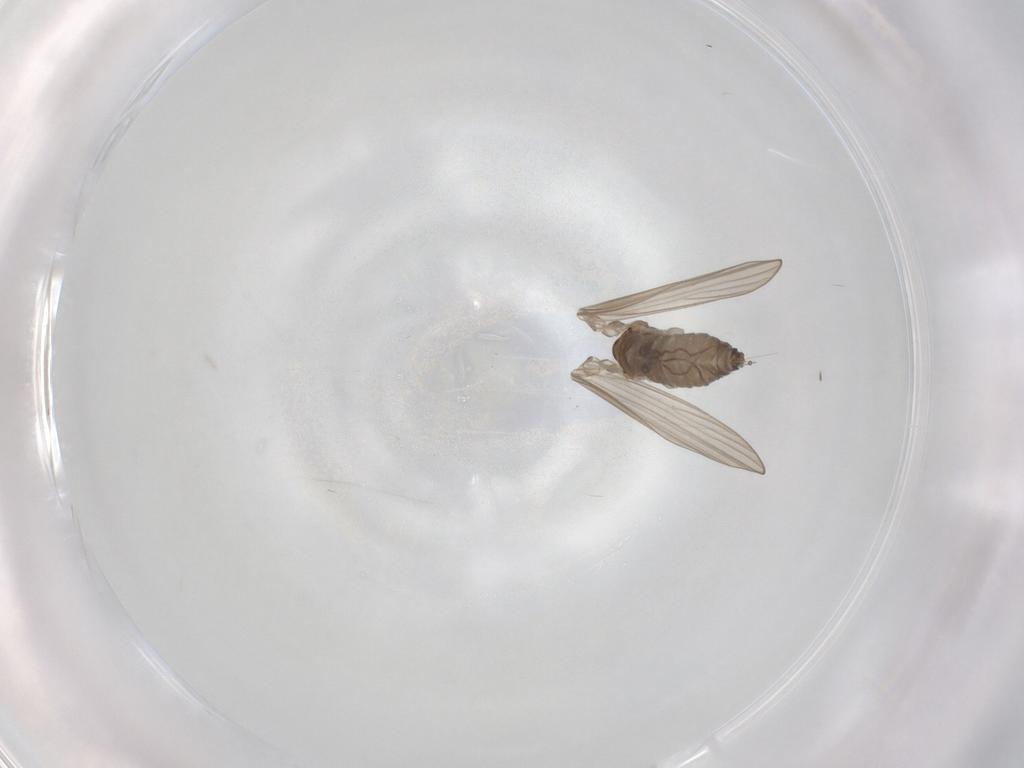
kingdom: Animalia
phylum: Arthropoda
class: Insecta
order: Diptera
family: Psychodidae
